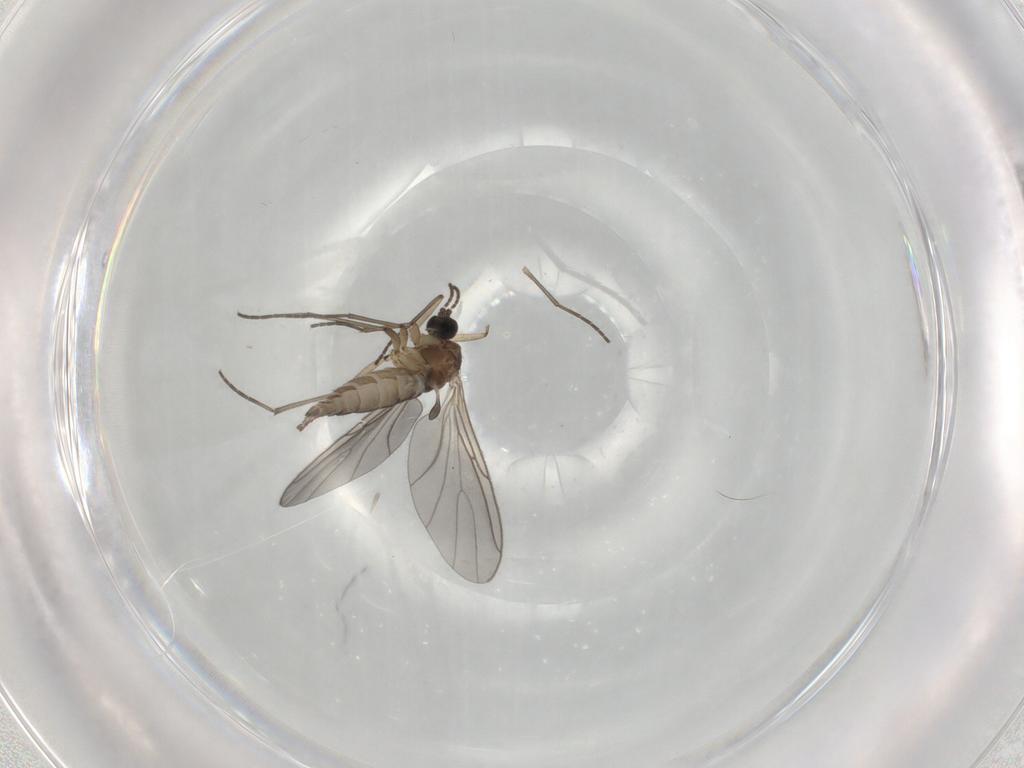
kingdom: Animalia
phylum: Arthropoda
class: Insecta
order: Diptera
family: Sciaridae
